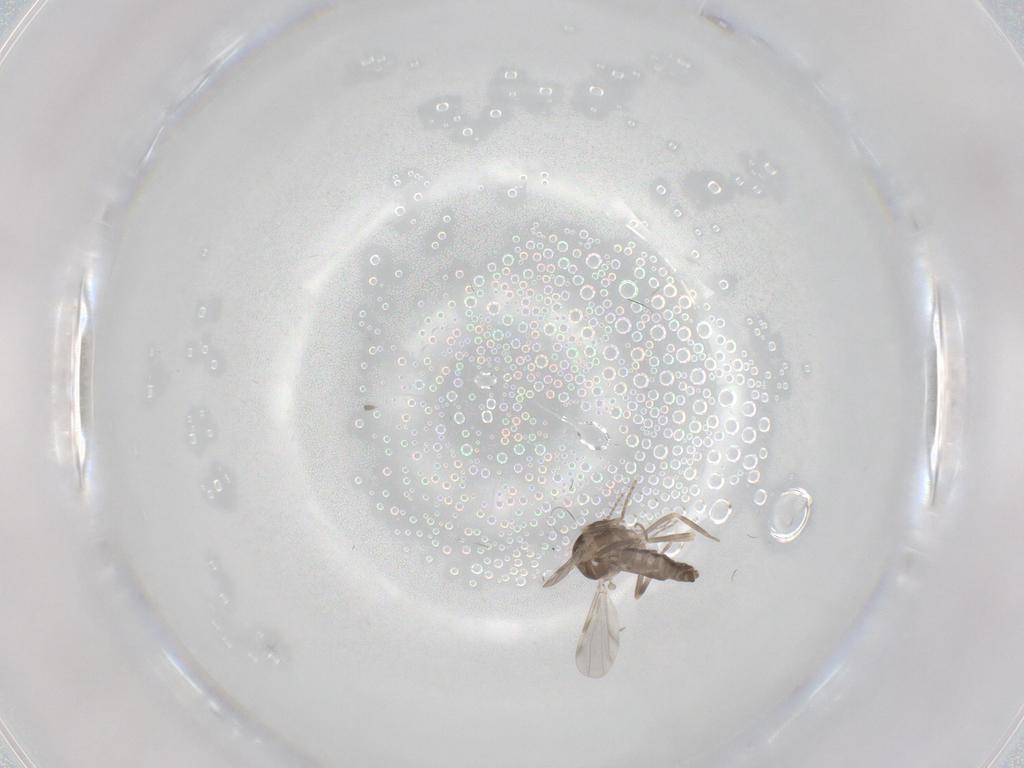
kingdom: Animalia
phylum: Arthropoda
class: Insecta
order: Diptera
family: Ceratopogonidae
